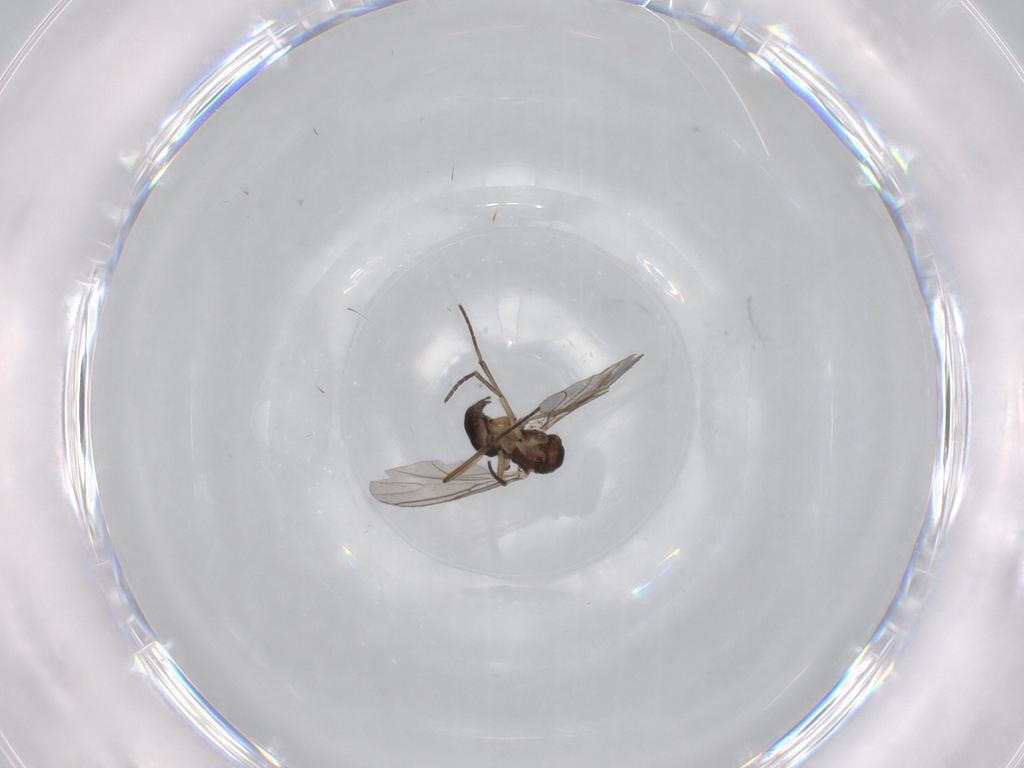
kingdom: Animalia
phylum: Arthropoda
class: Insecta
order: Diptera
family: Sciaridae
